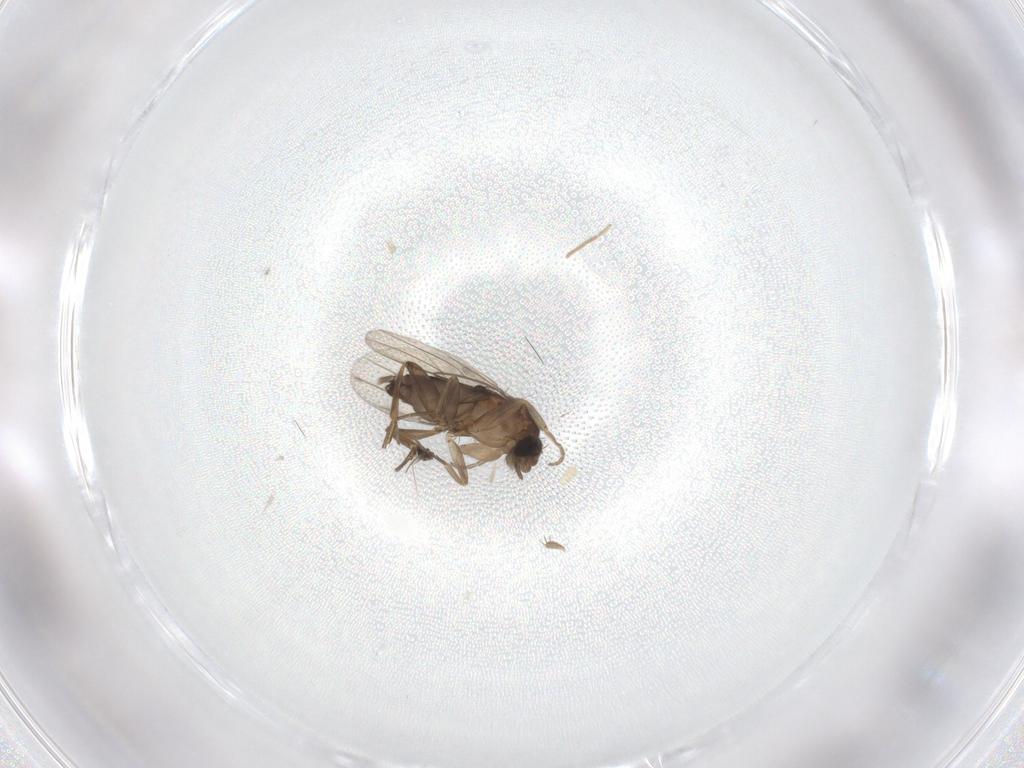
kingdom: Animalia
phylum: Arthropoda
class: Insecta
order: Diptera
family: Phoridae
